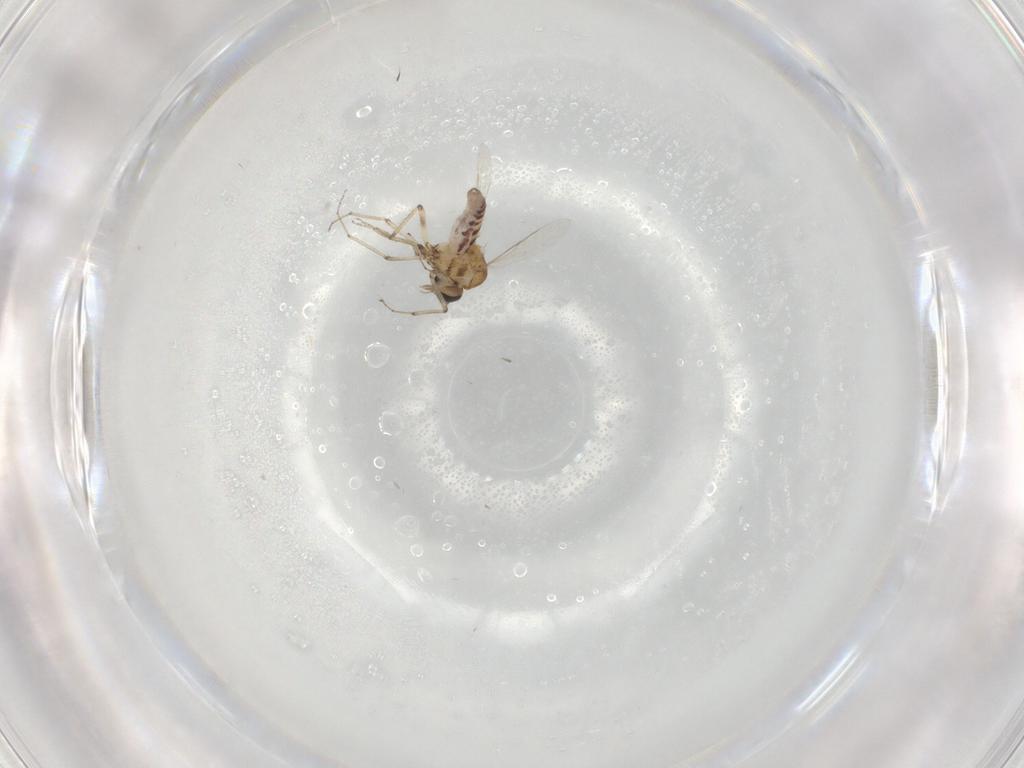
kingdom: Animalia
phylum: Arthropoda
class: Insecta
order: Diptera
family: Ceratopogonidae
